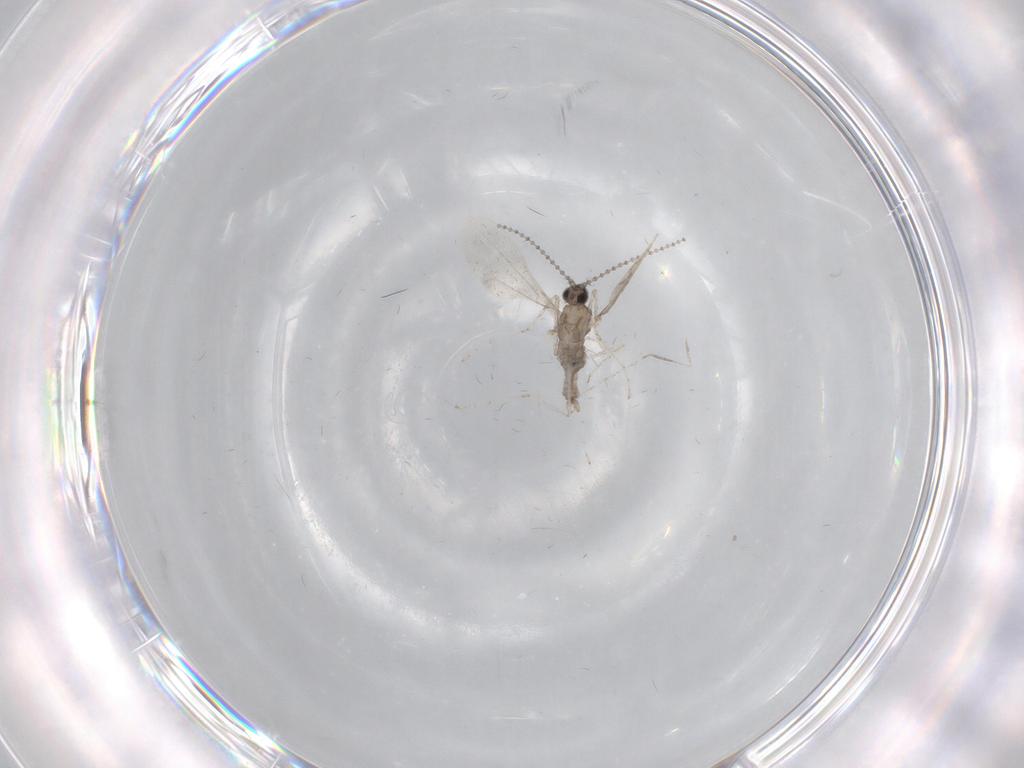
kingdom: Animalia
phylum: Arthropoda
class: Insecta
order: Diptera
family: Cecidomyiidae
